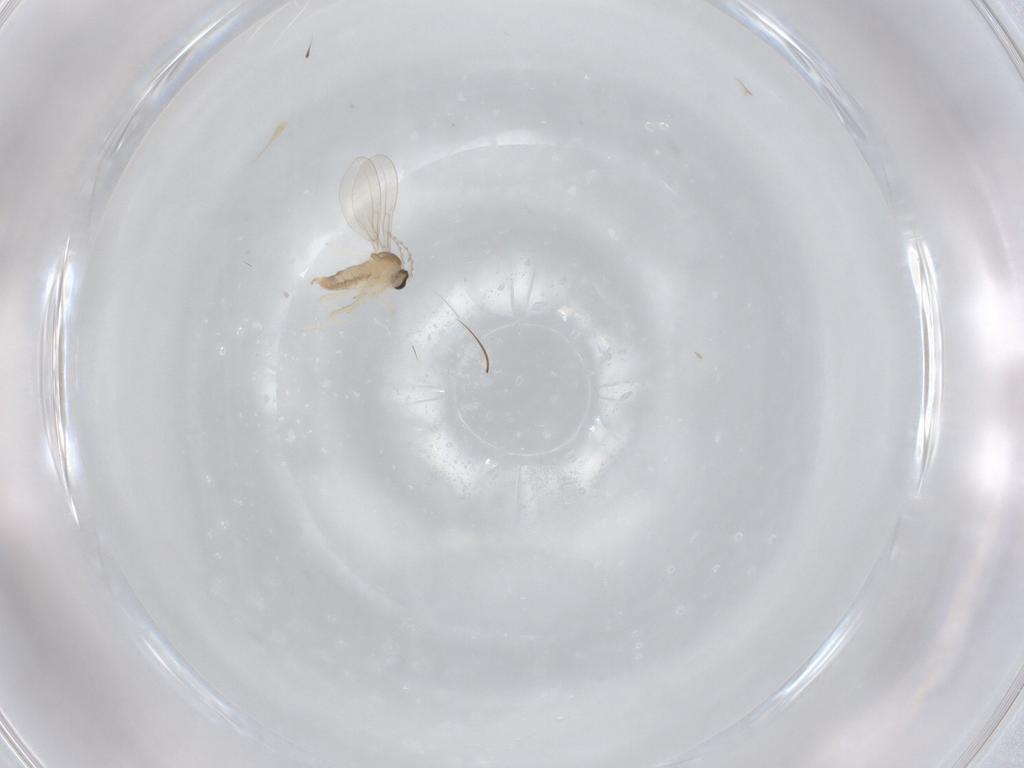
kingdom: Animalia
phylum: Arthropoda
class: Insecta
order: Diptera
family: Cecidomyiidae
